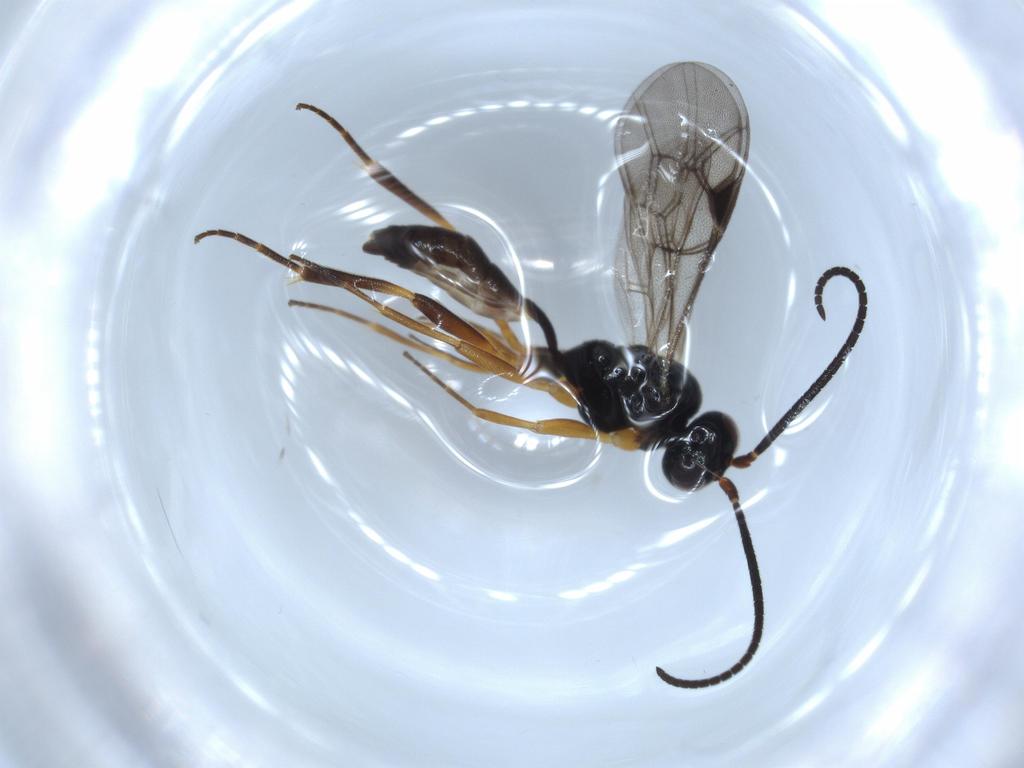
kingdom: Animalia
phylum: Arthropoda
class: Insecta
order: Hymenoptera
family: Ichneumonidae
